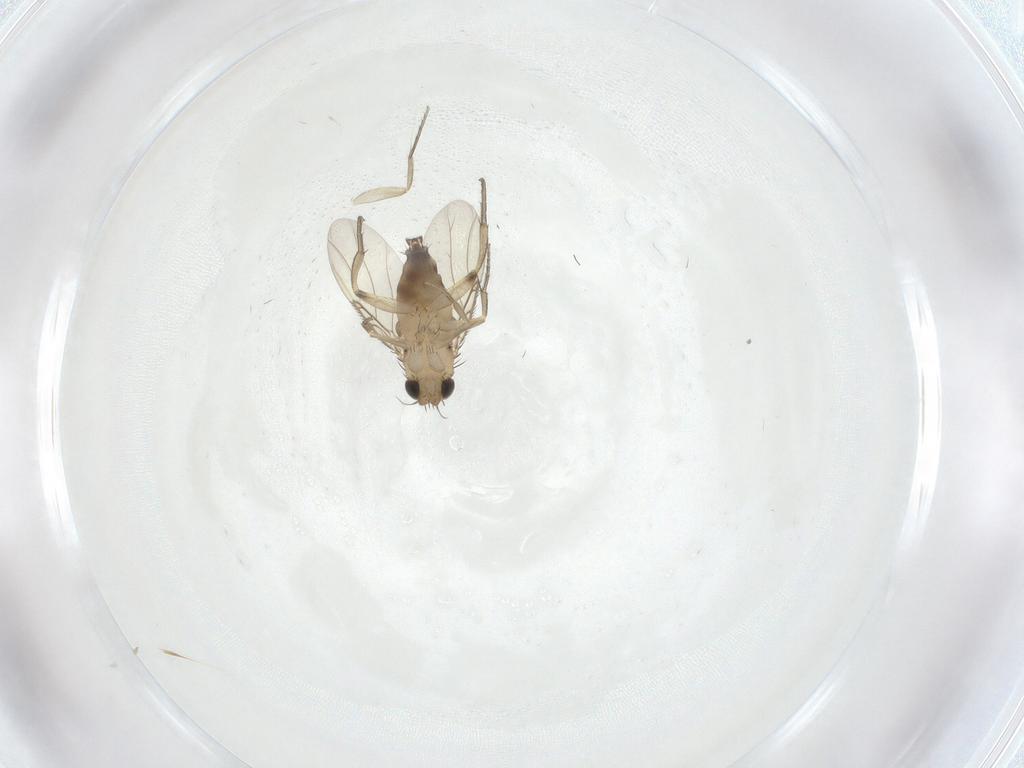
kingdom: Animalia
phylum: Arthropoda
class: Insecta
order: Diptera
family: Phoridae
